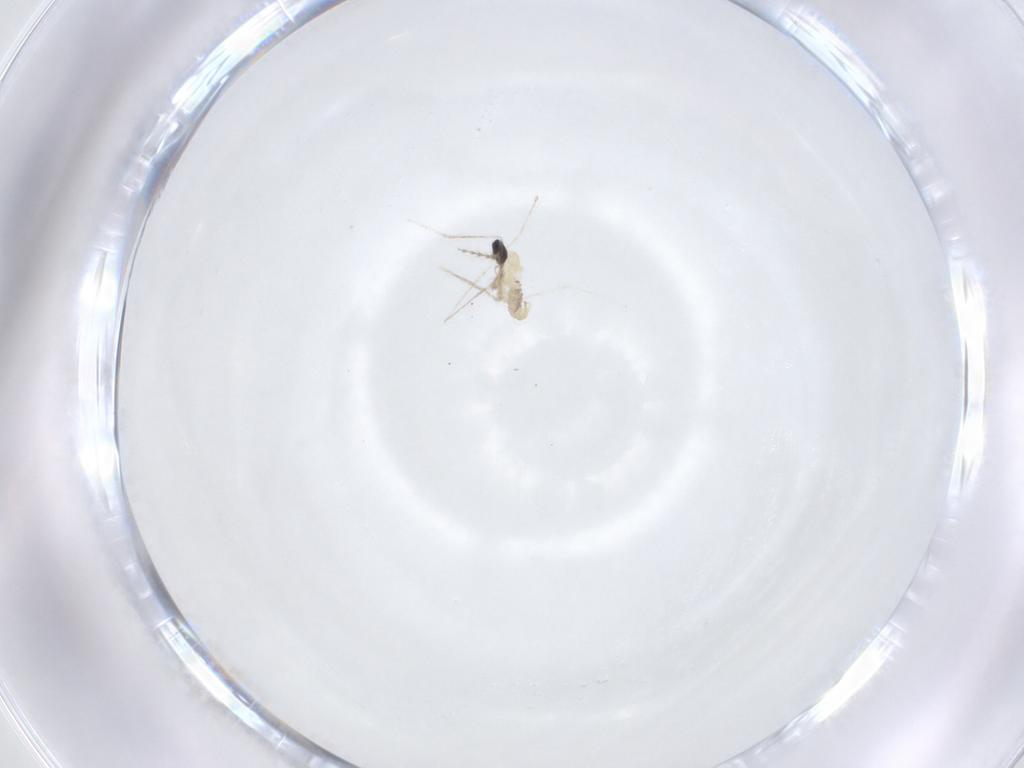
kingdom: Animalia
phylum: Arthropoda
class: Insecta
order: Diptera
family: Cecidomyiidae
